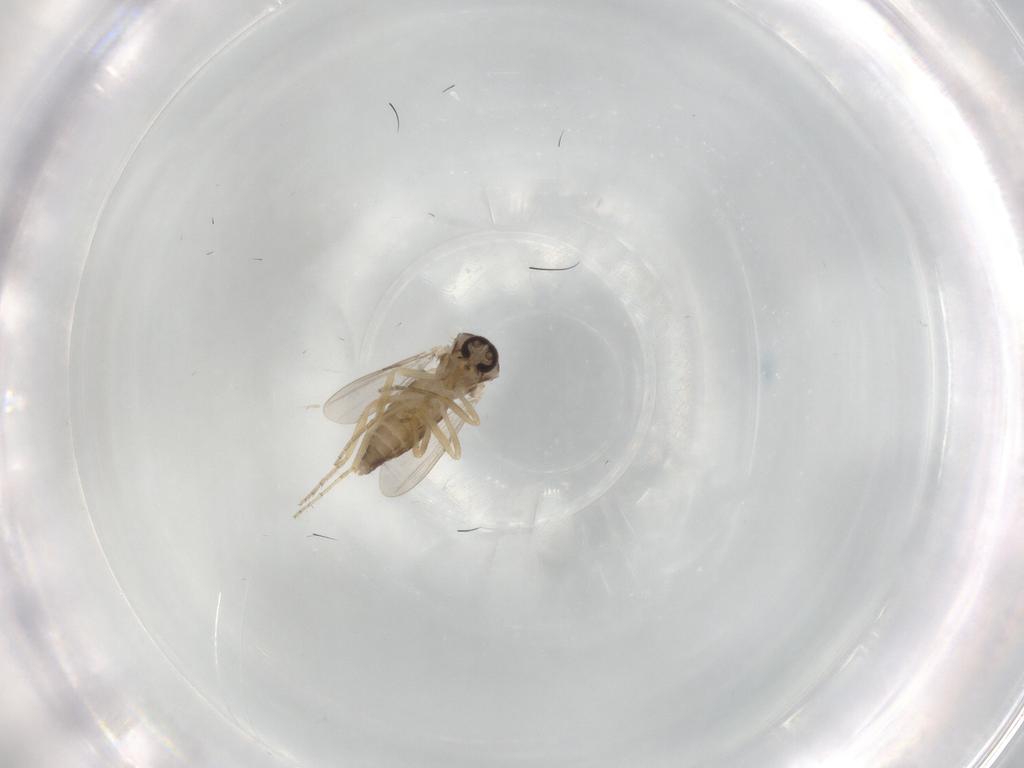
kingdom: Animalia
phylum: Arthropoda
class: Insecta
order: Diptera
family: Ceratopogonidae
